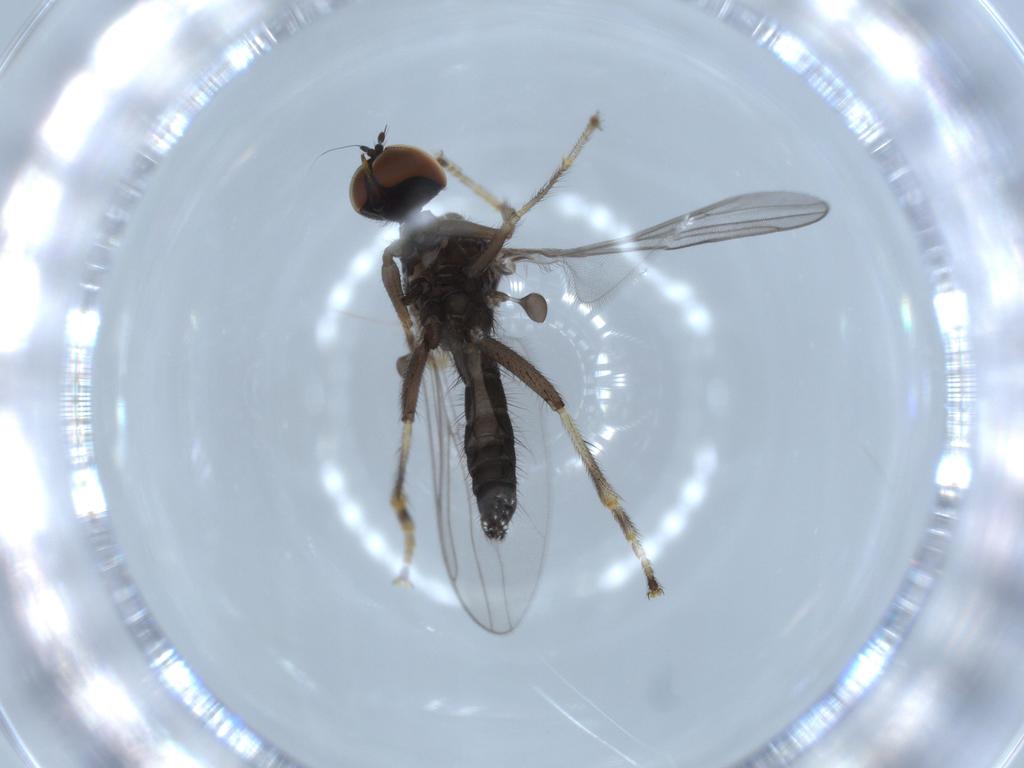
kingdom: Animalia
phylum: Arthropoda
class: Insecta
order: Diptera
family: Hybotidae
